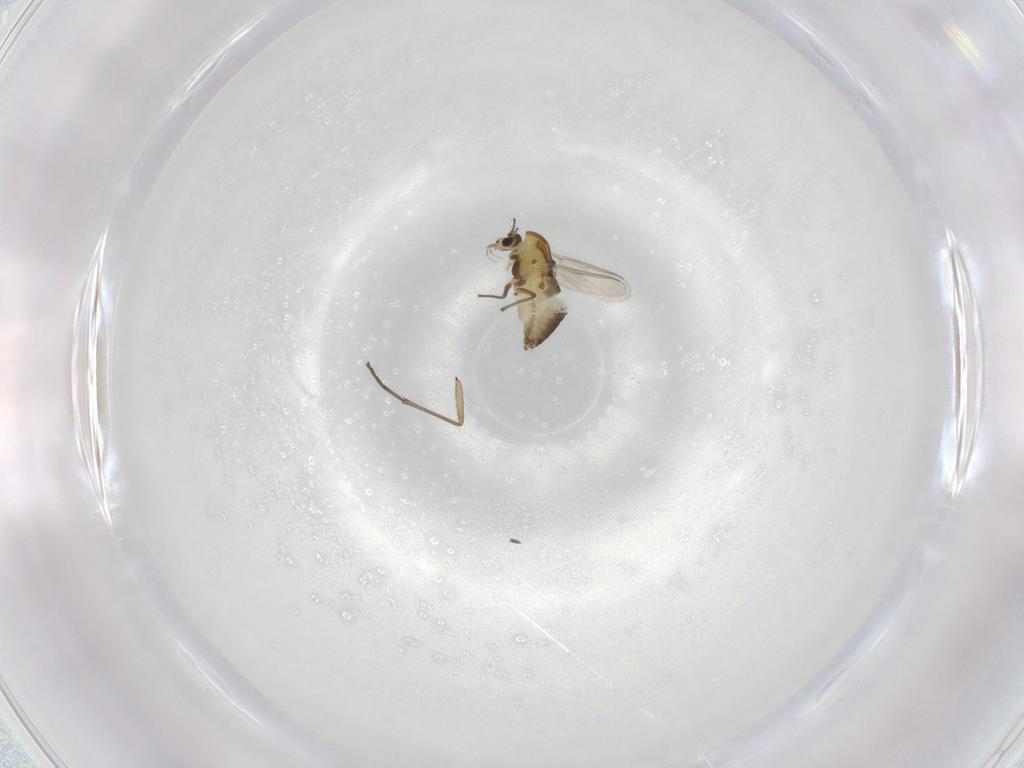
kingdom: Animalia
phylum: Arthropoda
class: Insecta
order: Diptera
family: Chironomidae
